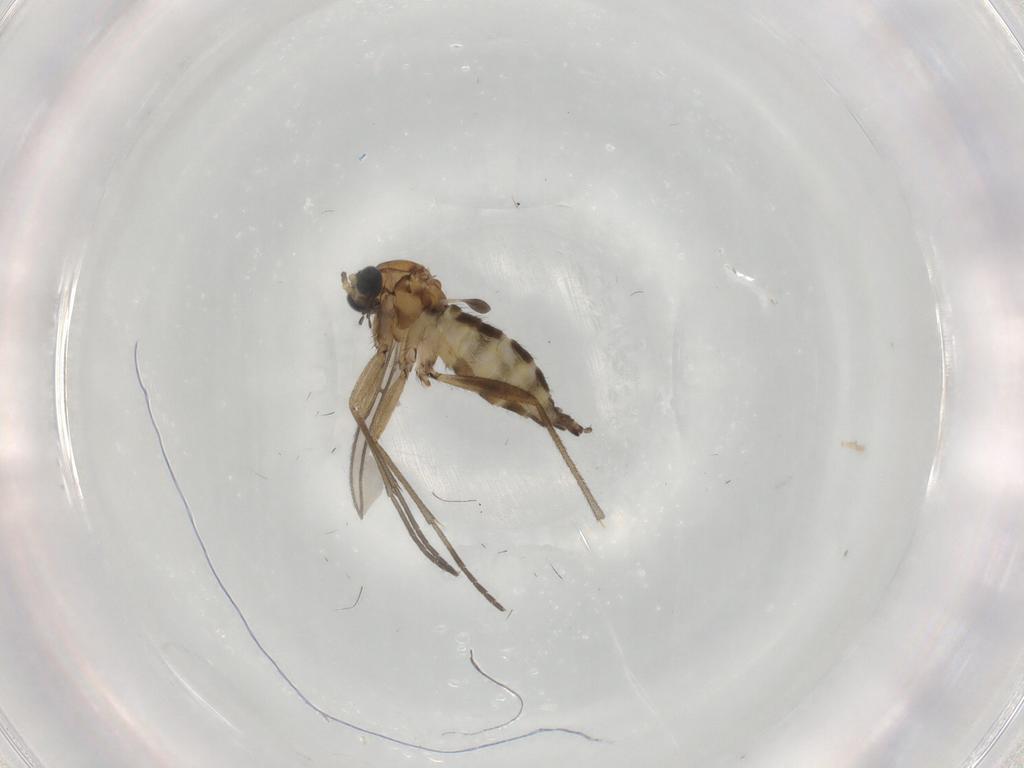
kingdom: Animalia
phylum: Arthropoda
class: Insecta
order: Diptera
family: Sciaridae
